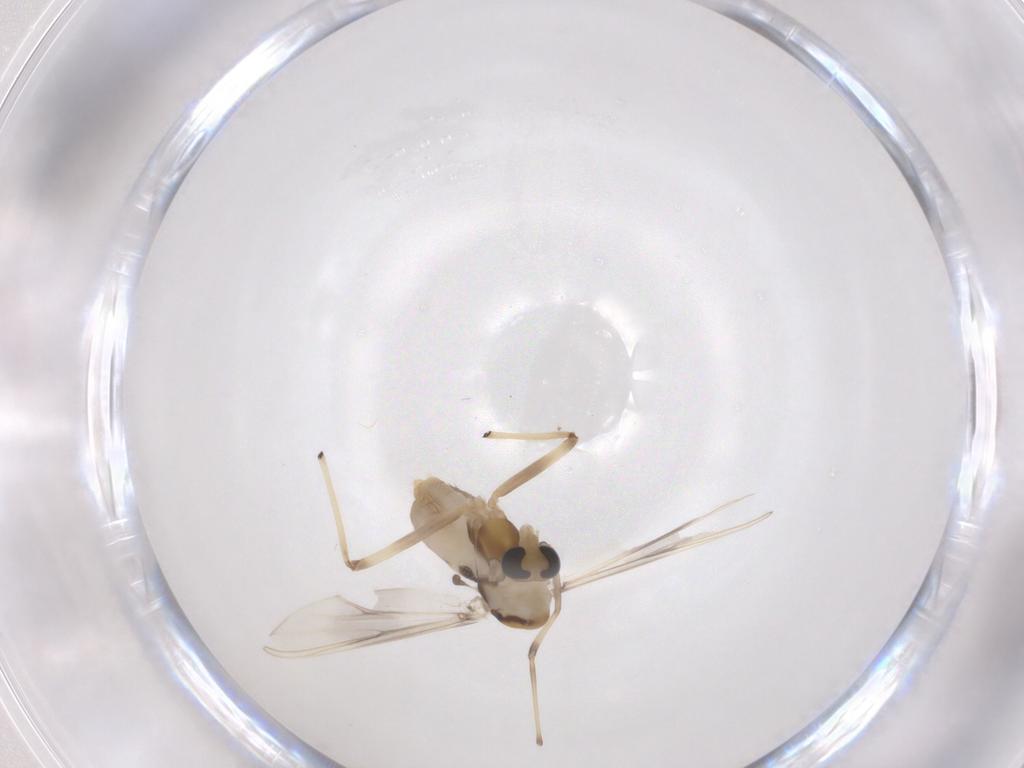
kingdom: Animalia
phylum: Arthropoda
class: Insecta
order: Diptera
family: Chironomidae
